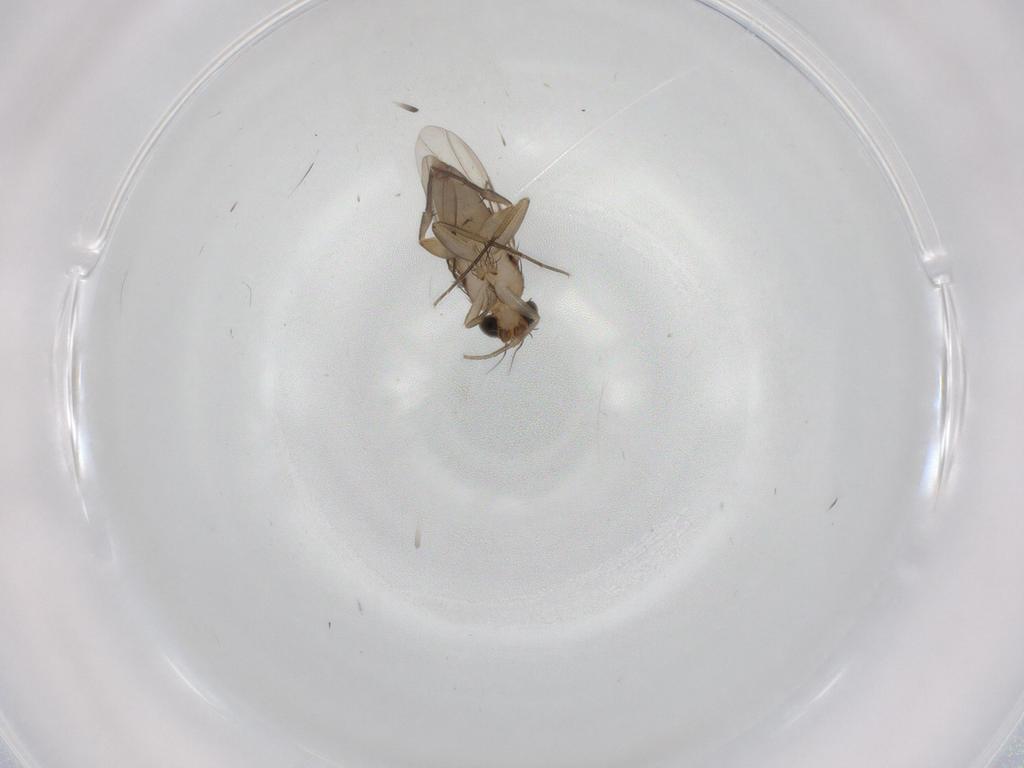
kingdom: Animalia
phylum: Arthropoda
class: Insecta
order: Diptera
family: Phoridae
